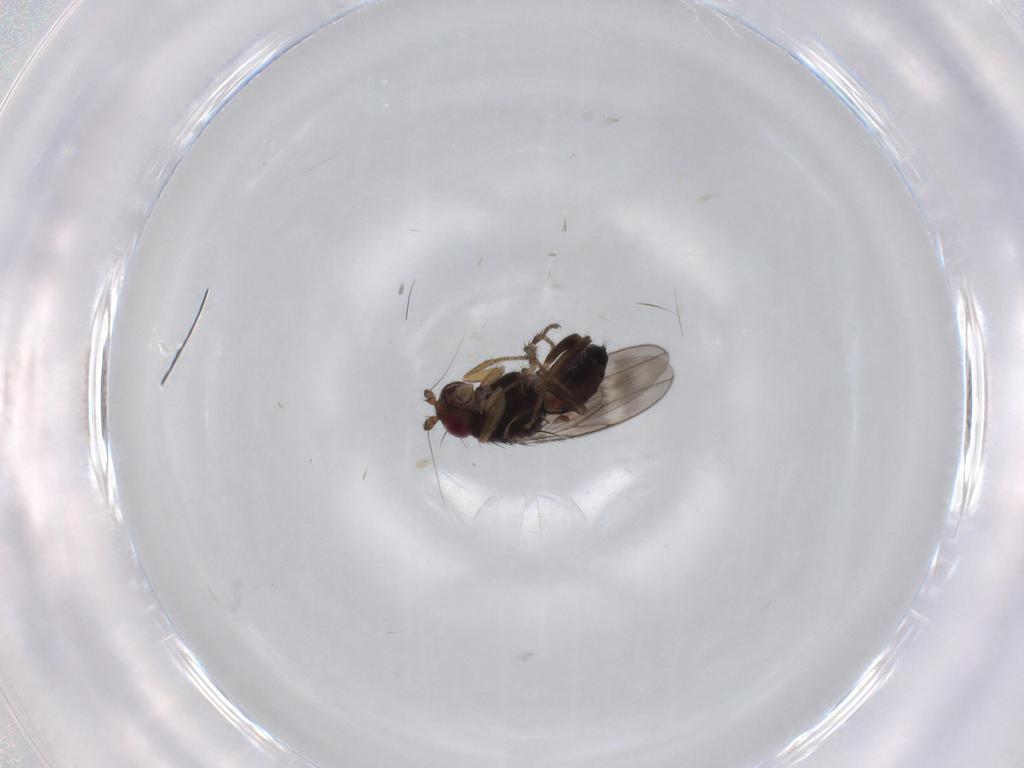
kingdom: Animalia
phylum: Arthropoda
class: Insecta
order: Diptera
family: Sphaeroceridae
